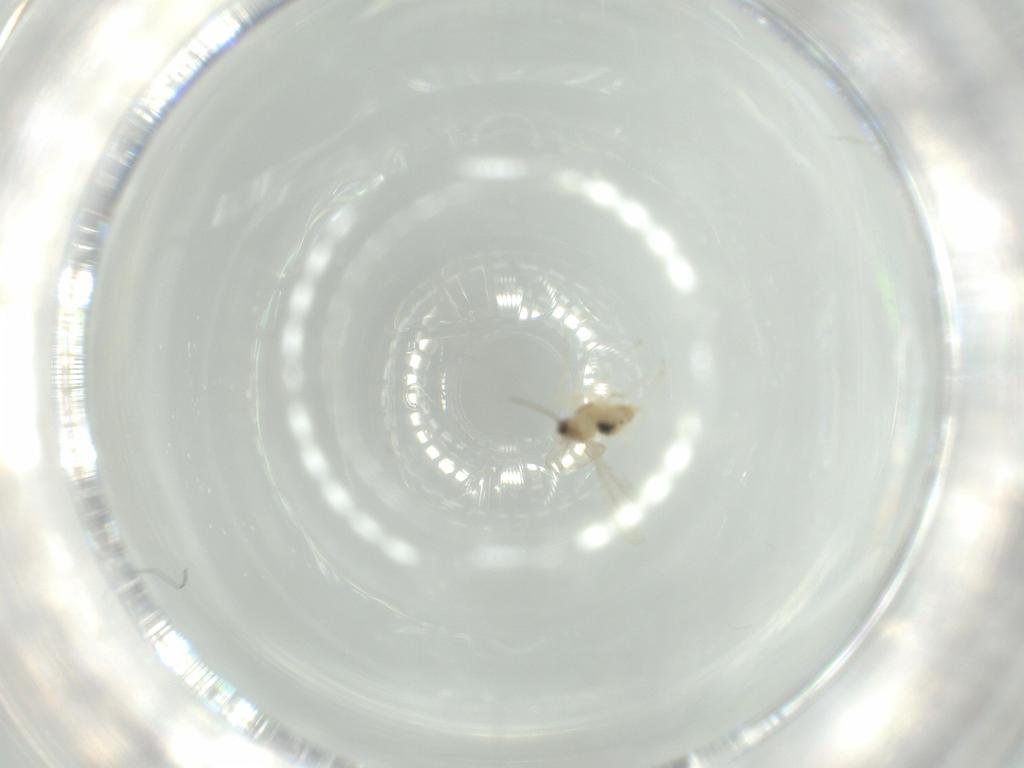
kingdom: Animalia
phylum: Arthropoda
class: Insecta
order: Diptera
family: Cecidomyiidae
